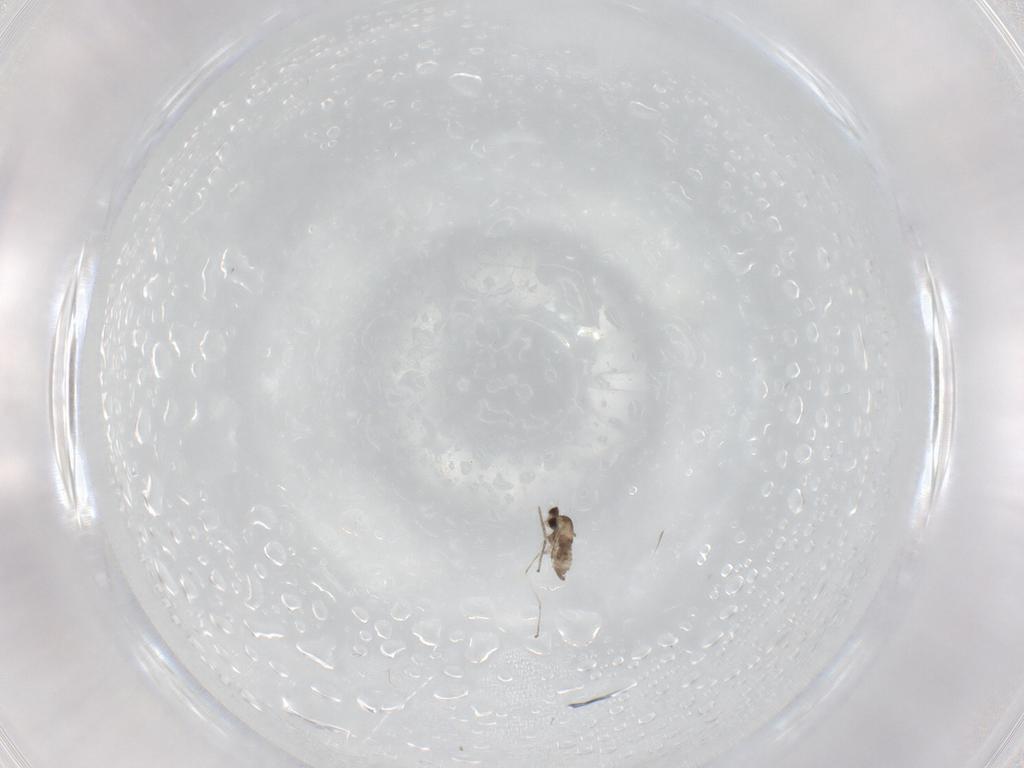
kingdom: Animalia
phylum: Arthropoda
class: Insecta
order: Diptera
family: Cecidomyiidae
